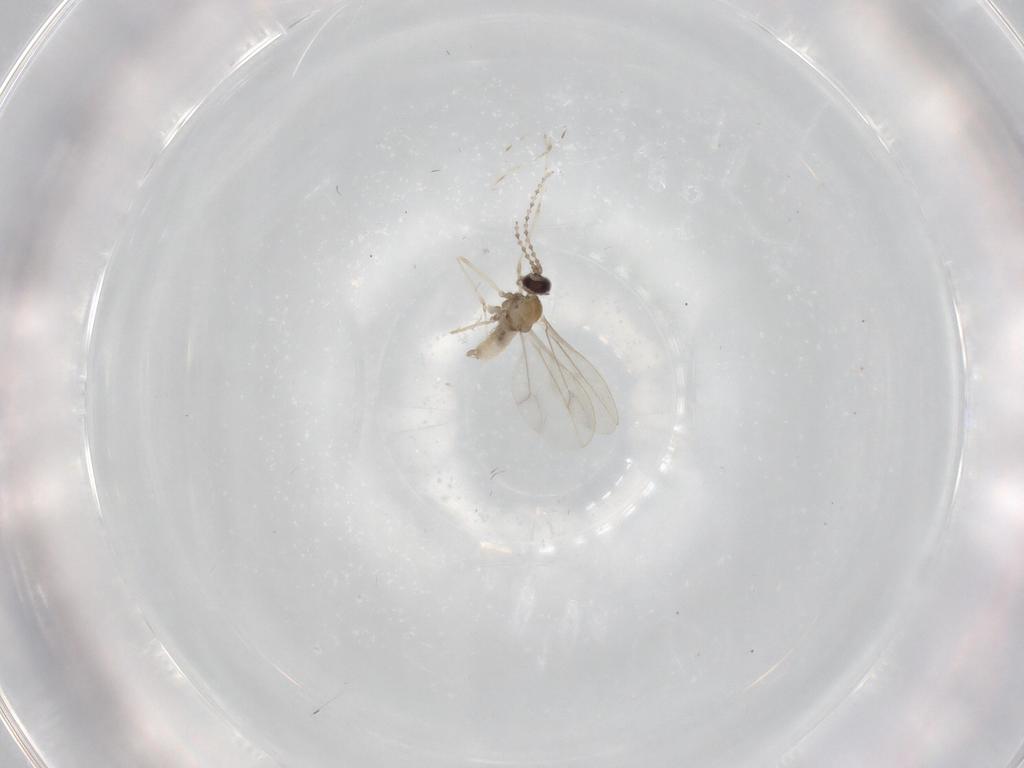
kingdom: Animalia
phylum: Arthropoda
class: Insecta
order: Diptera
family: Cecidomyiidae
